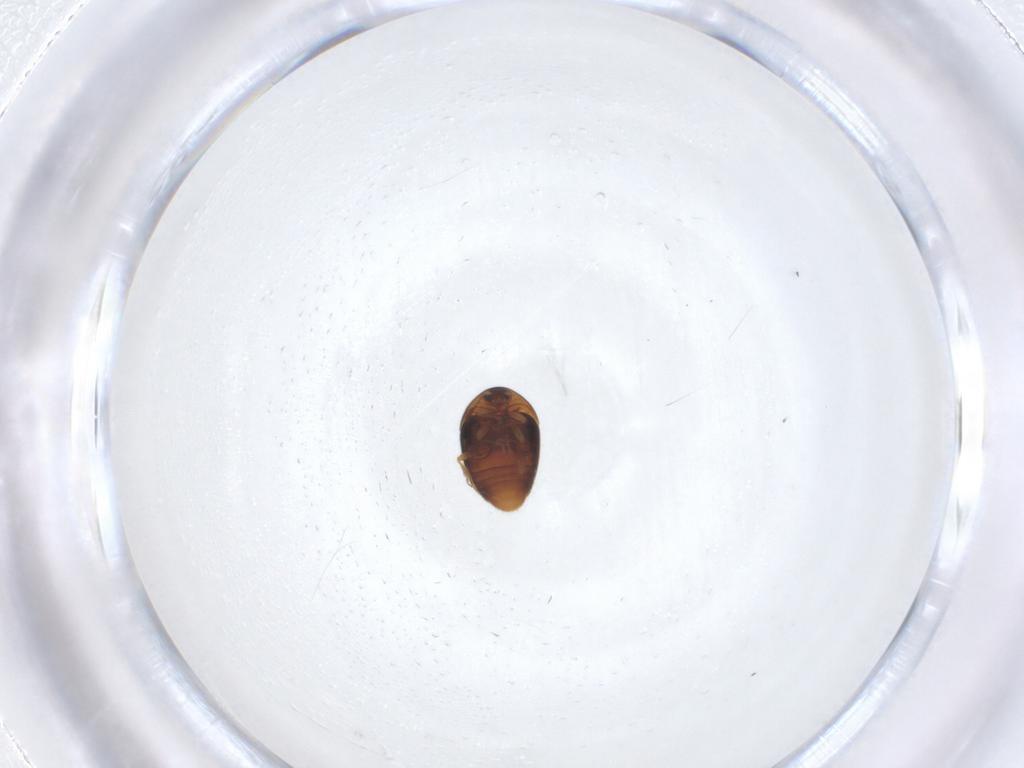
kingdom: Animalia
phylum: Arthropoda
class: Insecta
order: Coleoptera
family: Corylophidae
